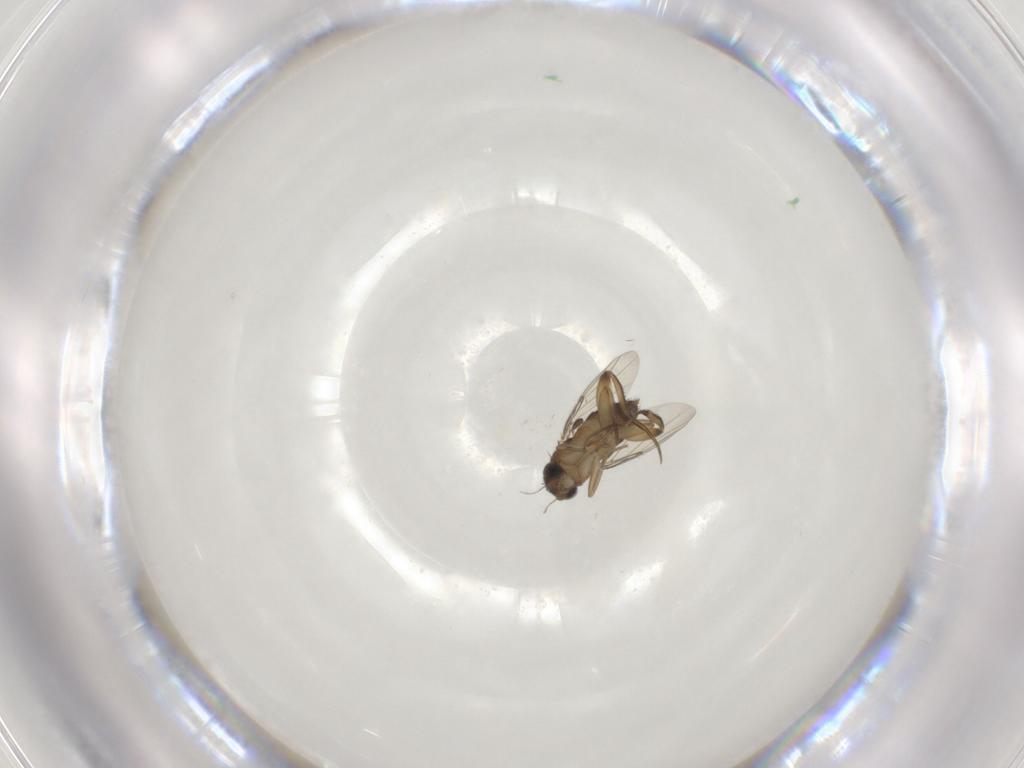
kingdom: Animalia
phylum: Arthropoda
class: Insecta
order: Diptera
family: Phoridae
